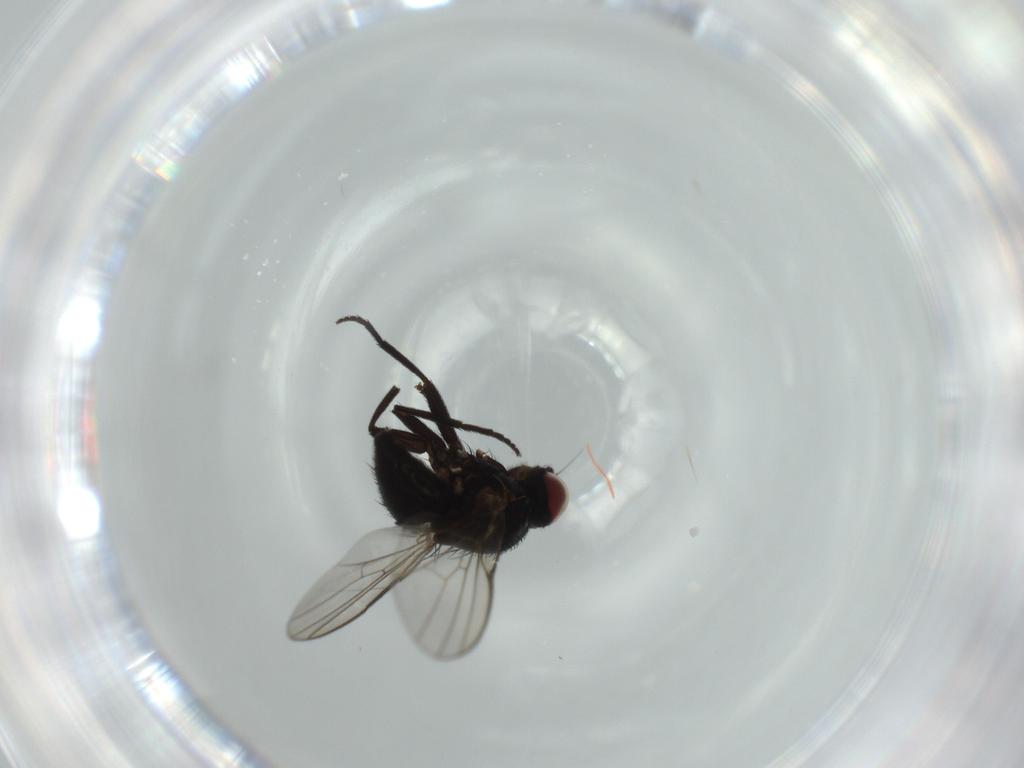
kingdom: Animalia
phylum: Arthropoda
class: Insecta
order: Diptera
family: Agromyzidae
